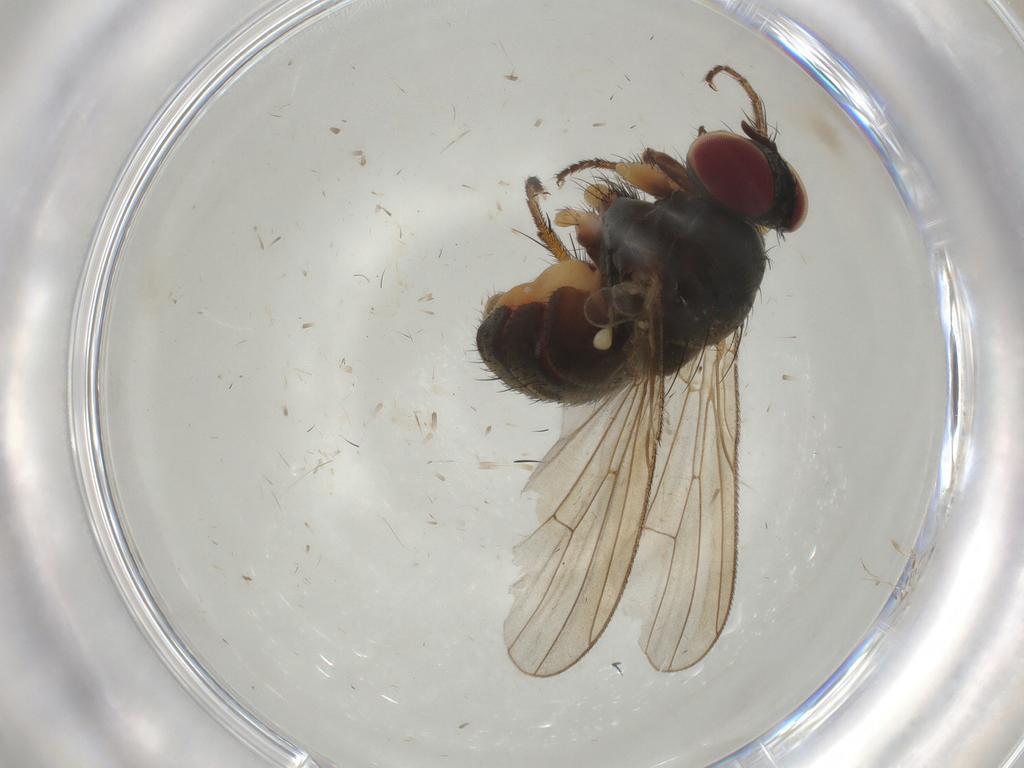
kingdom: Animalia
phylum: Arthropoda
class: Insecta
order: Diptera
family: Muscidae
